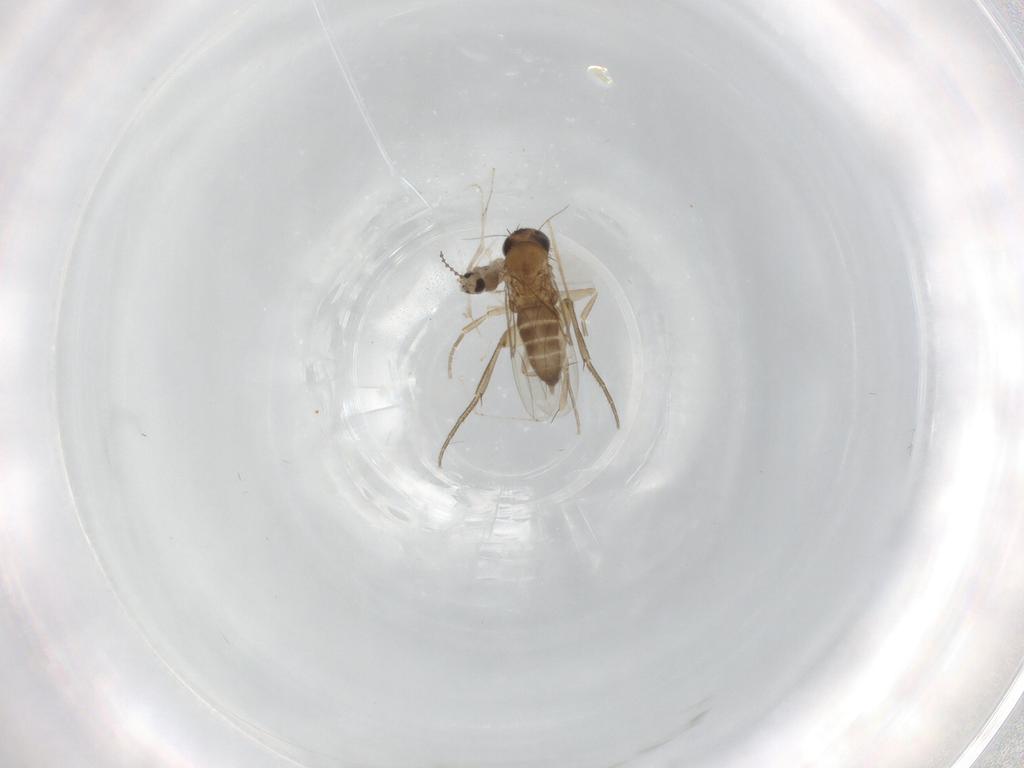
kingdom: Animalia
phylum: Arthropoda
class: Insecta
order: Diptera
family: Phoridae
